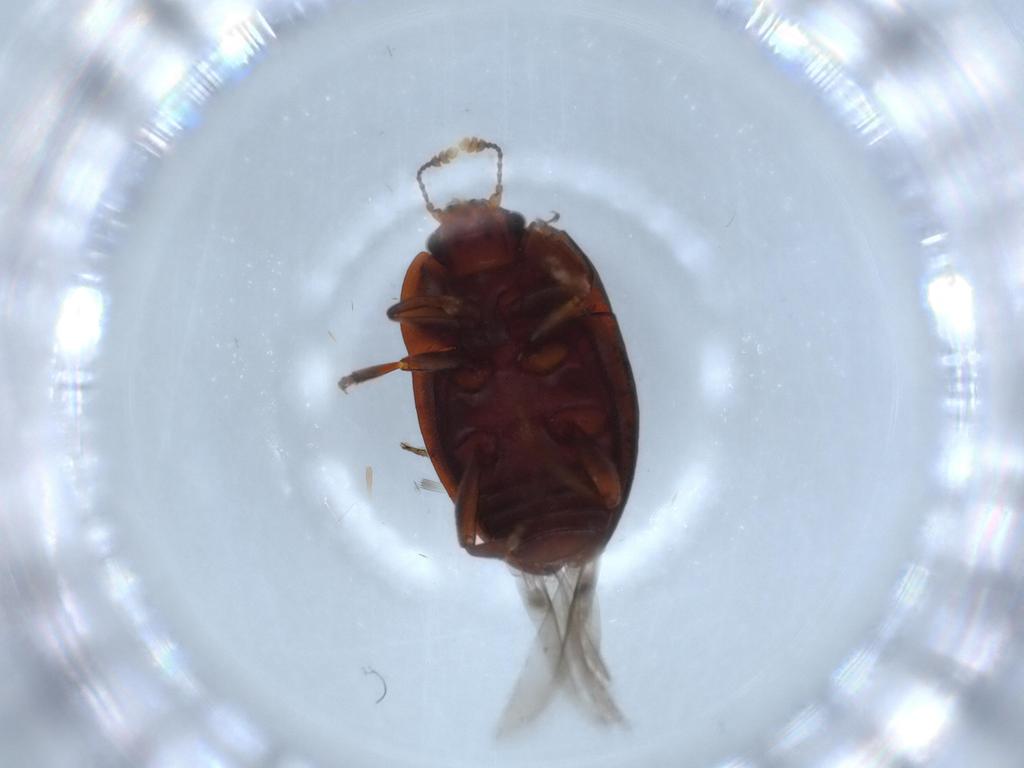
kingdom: Animalia
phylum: Arthropoda
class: Insecta
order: Coleoptera
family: Nitidulidae
